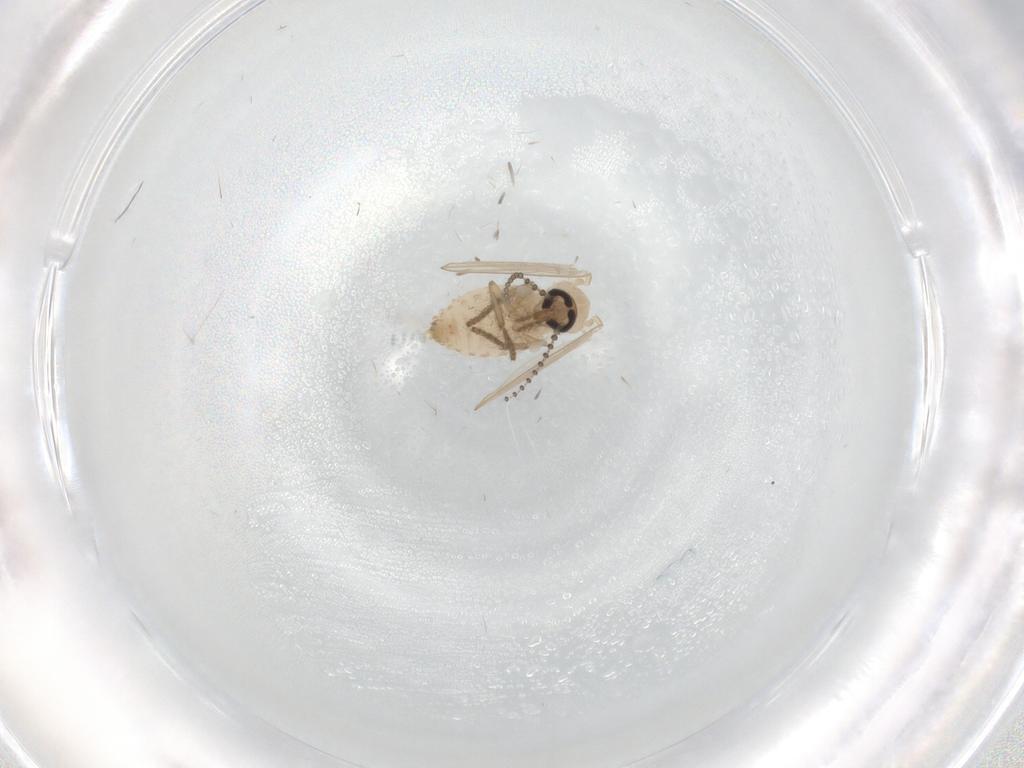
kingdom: Animalia
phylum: Arthropoda
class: Insecta
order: Diptera
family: Psychodidae
